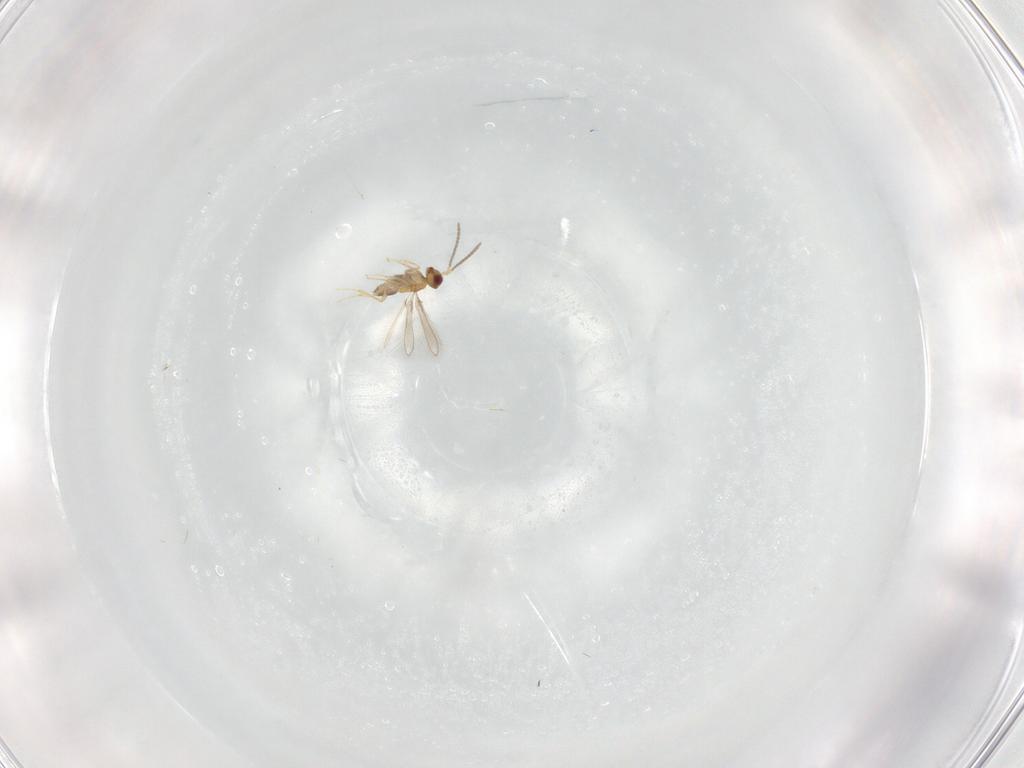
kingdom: Animalia
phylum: Arthropoda
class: Insecta
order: Hymenoptera
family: Mymaridae
